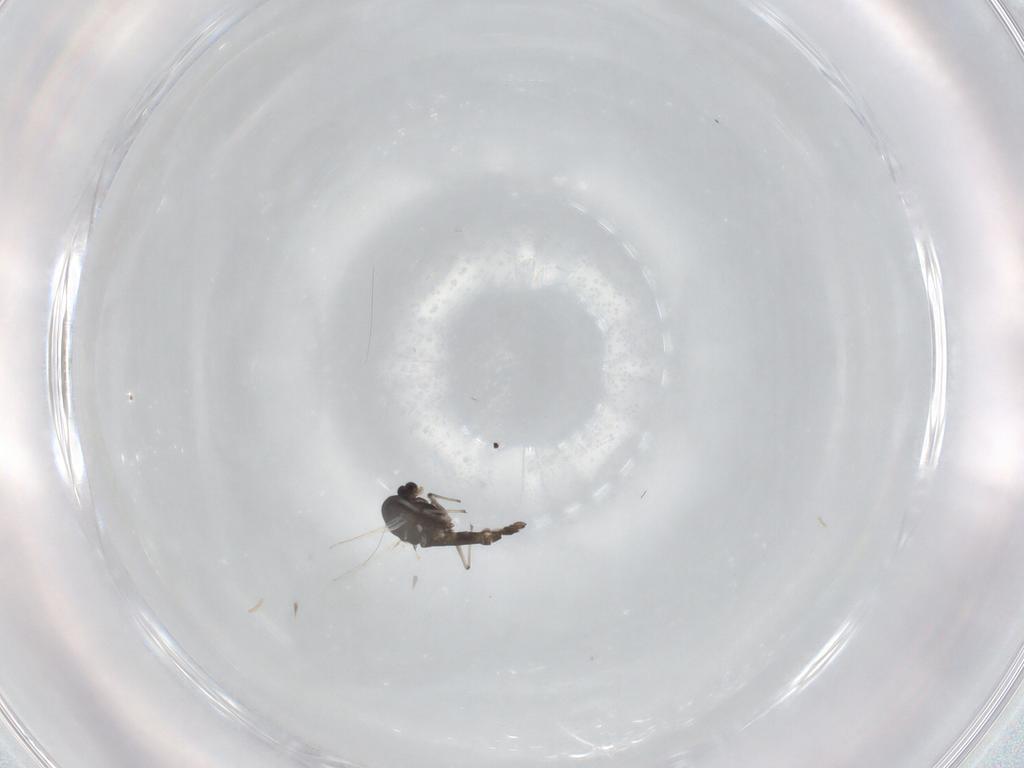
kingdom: Animalia
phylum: Arthropoda
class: Insecta
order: Diptera
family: Chironomidae
